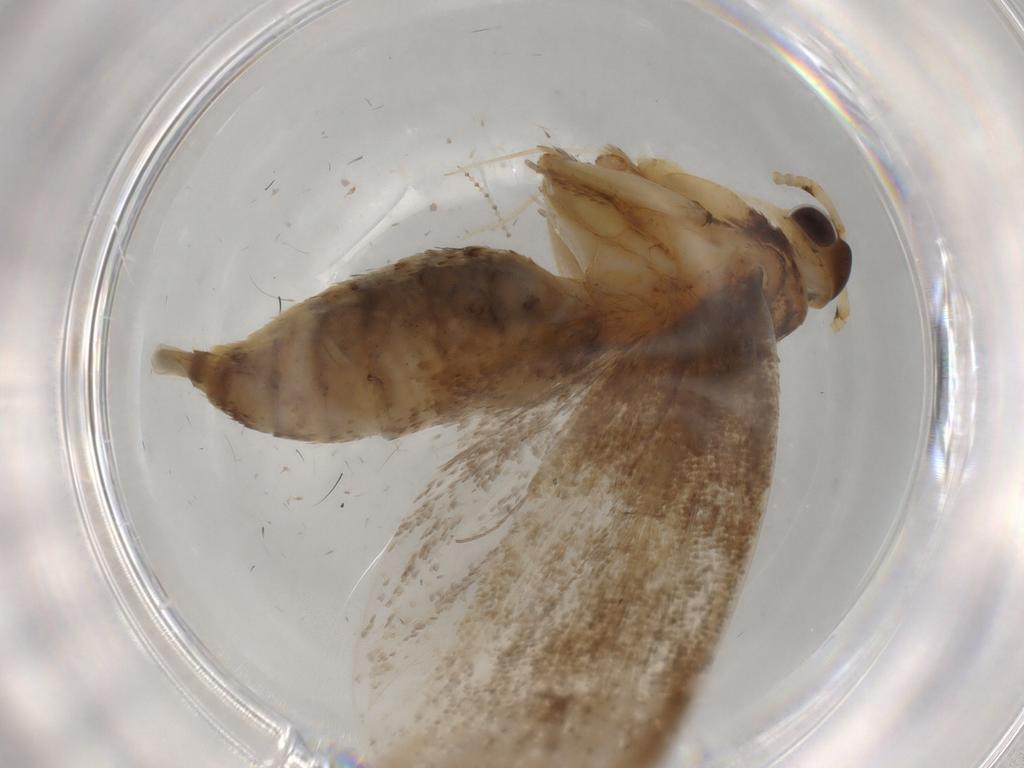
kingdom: Animalia
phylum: Arthropoda
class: Insecta
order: Lepidoptera
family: Lecithoceridae
